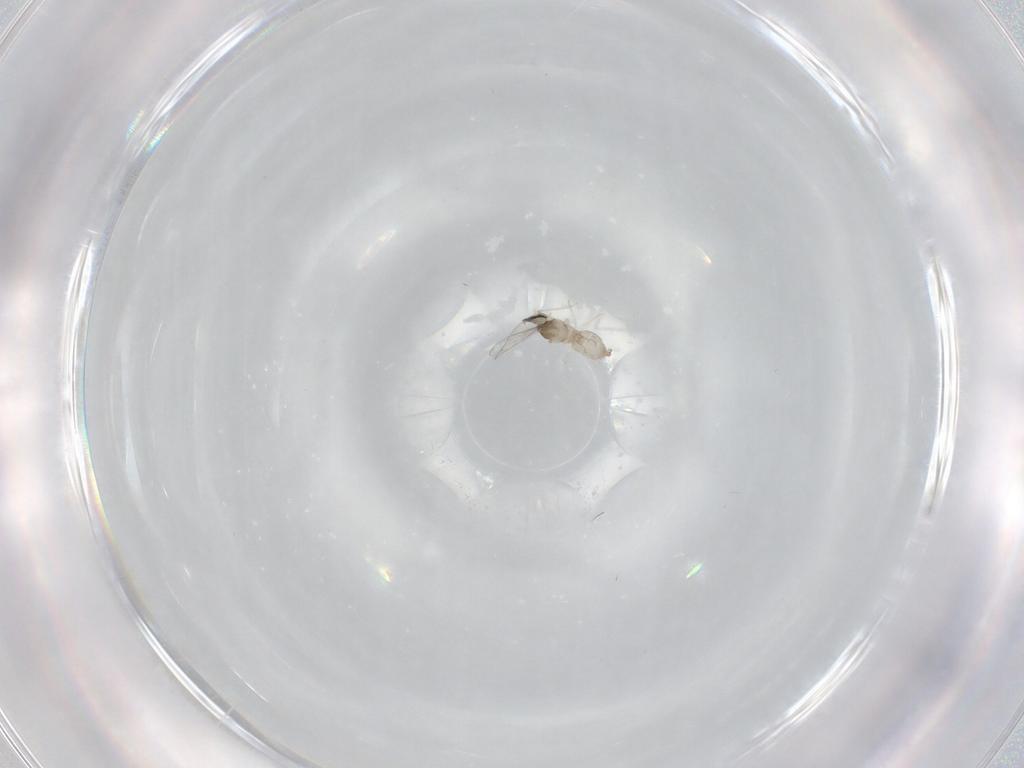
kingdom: Animalia
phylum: Arthropoda
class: Insecta
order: Diptera
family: Cecidomyiidae
